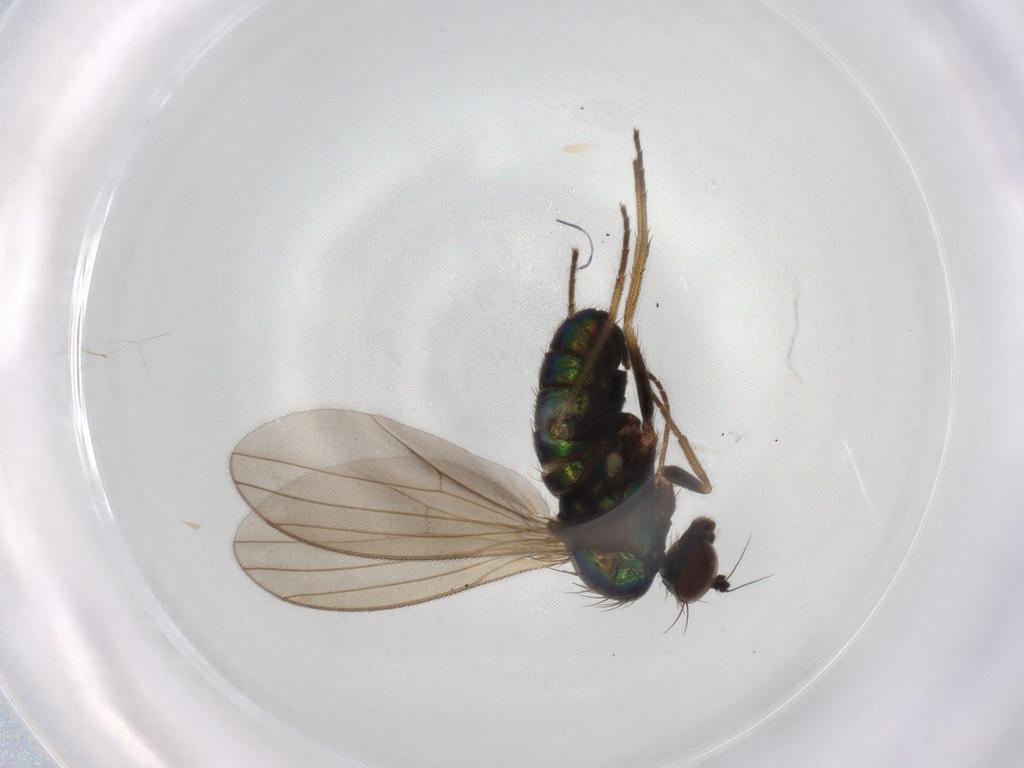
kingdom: Animalia
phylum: Arthropoda
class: Insecta
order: Diptera
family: Dolichopodidae
